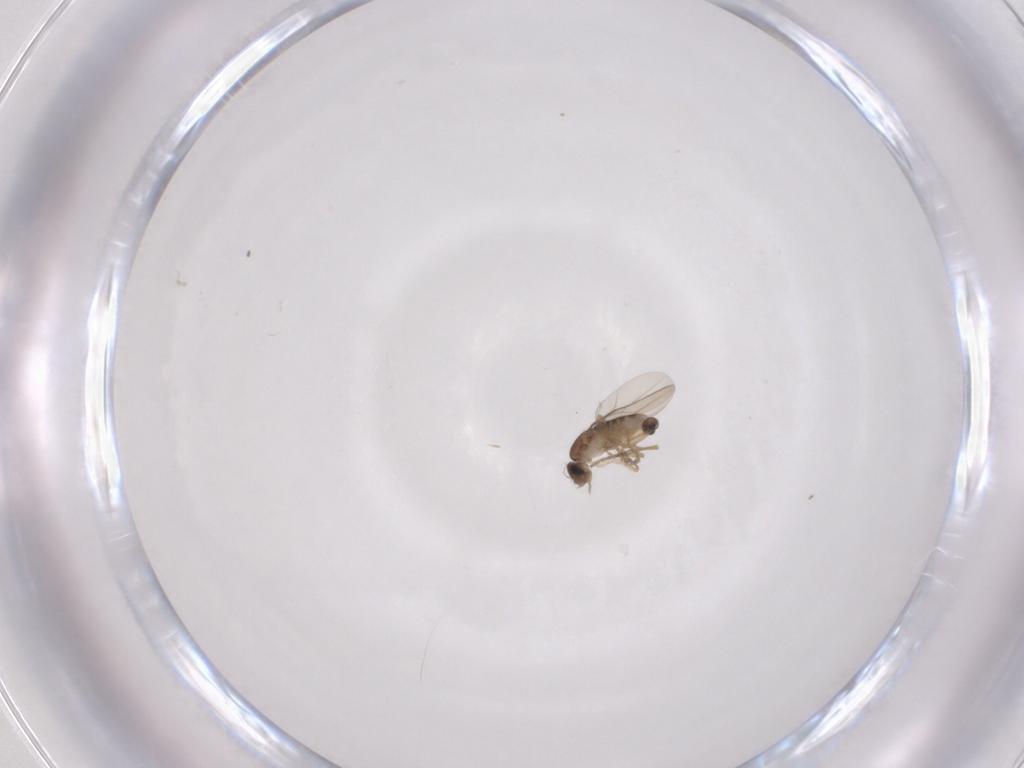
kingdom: Animalia
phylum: Arthropoda
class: Insecta
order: Diptera
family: Phoridae
